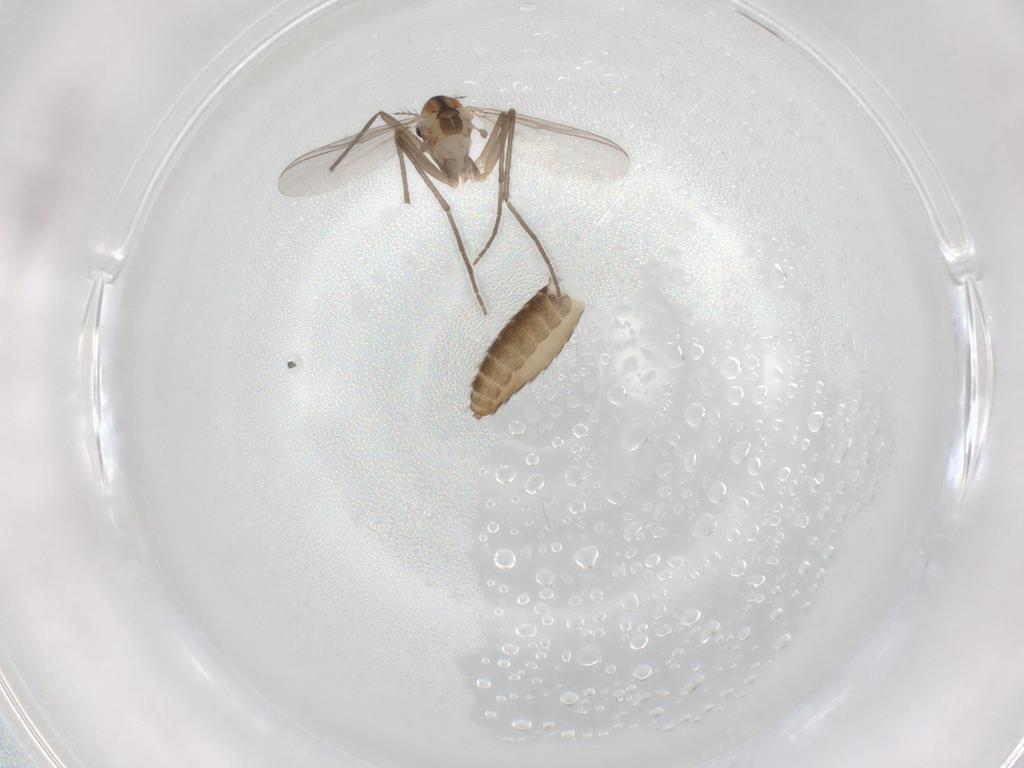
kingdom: Animalia
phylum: Arthropoda
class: Insecta
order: Diptera
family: Chironomidae
